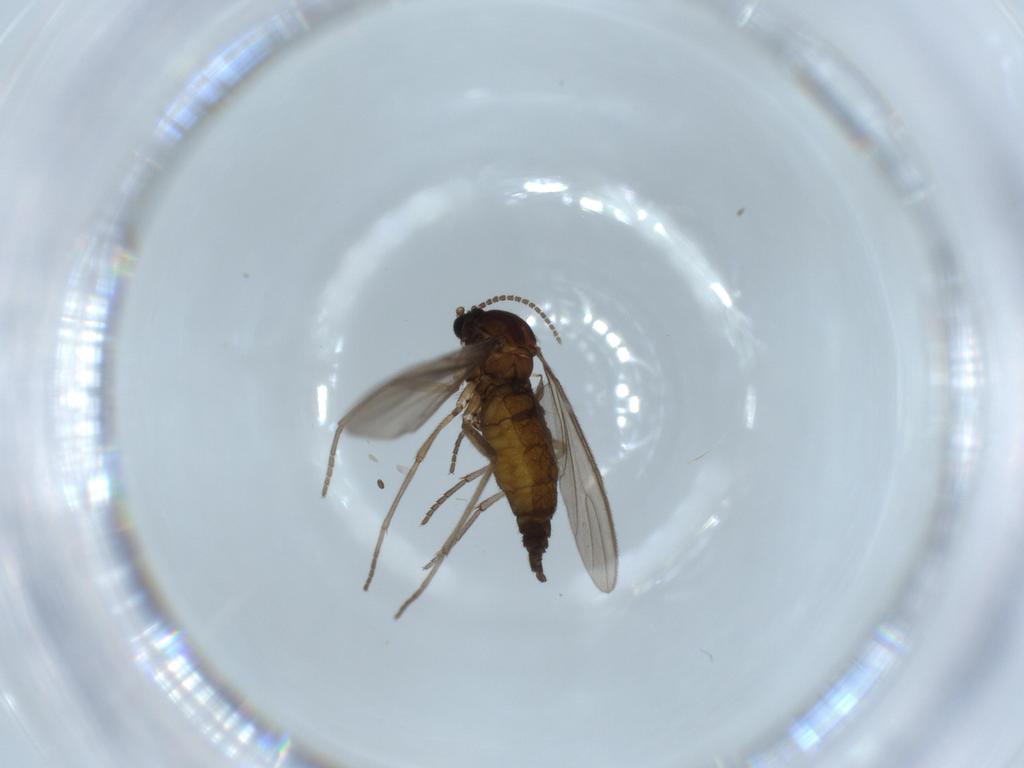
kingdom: Animalia
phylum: Arthropoda
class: Insecta
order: Diptera
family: Sciaridae
